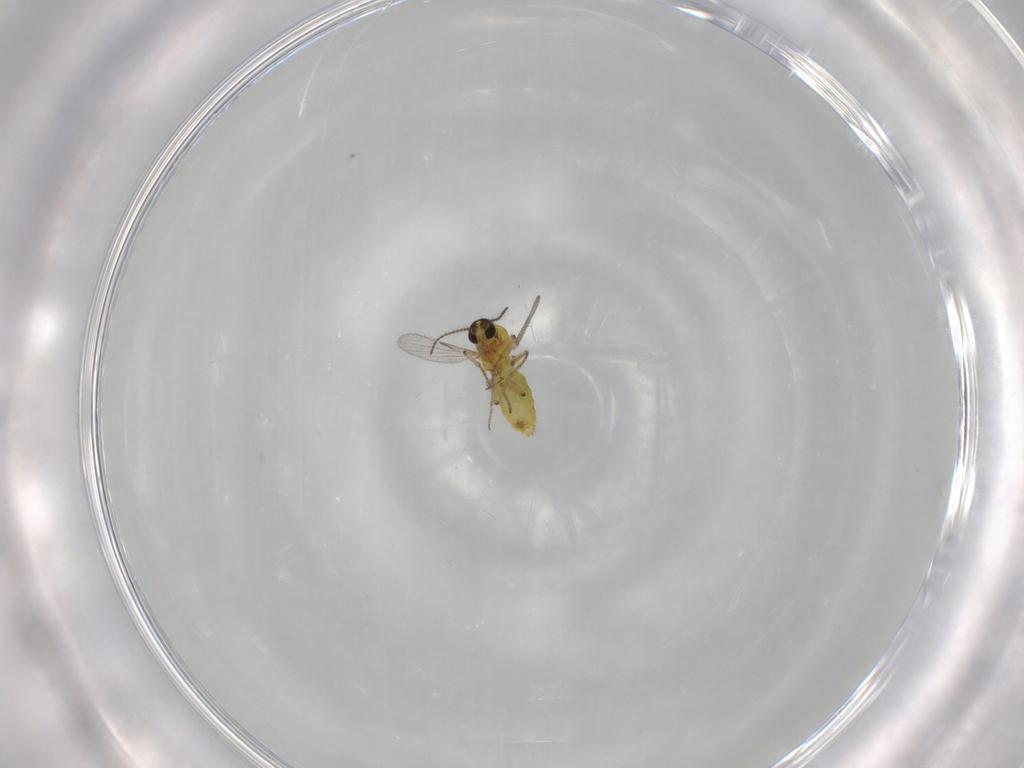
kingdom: Animalia
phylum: Arthropoda
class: Insecta
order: Diptera
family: Ceratopogonidae
